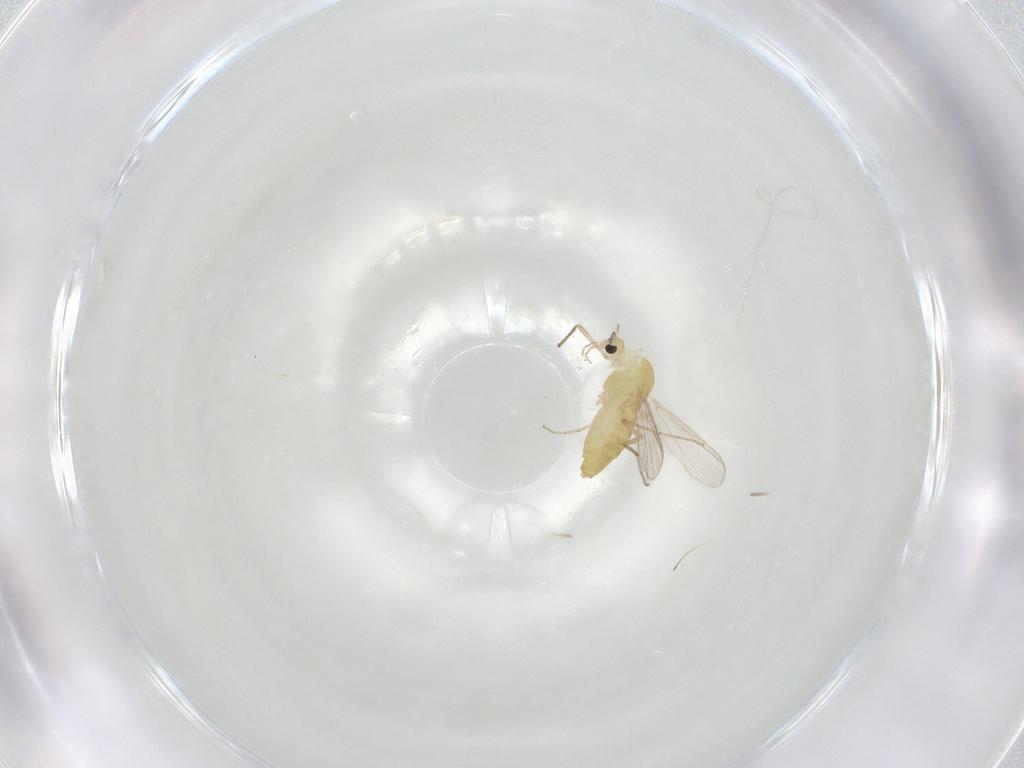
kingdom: Animalia
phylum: Arthropoda
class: Insecta
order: Diptera
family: Chironomidae
